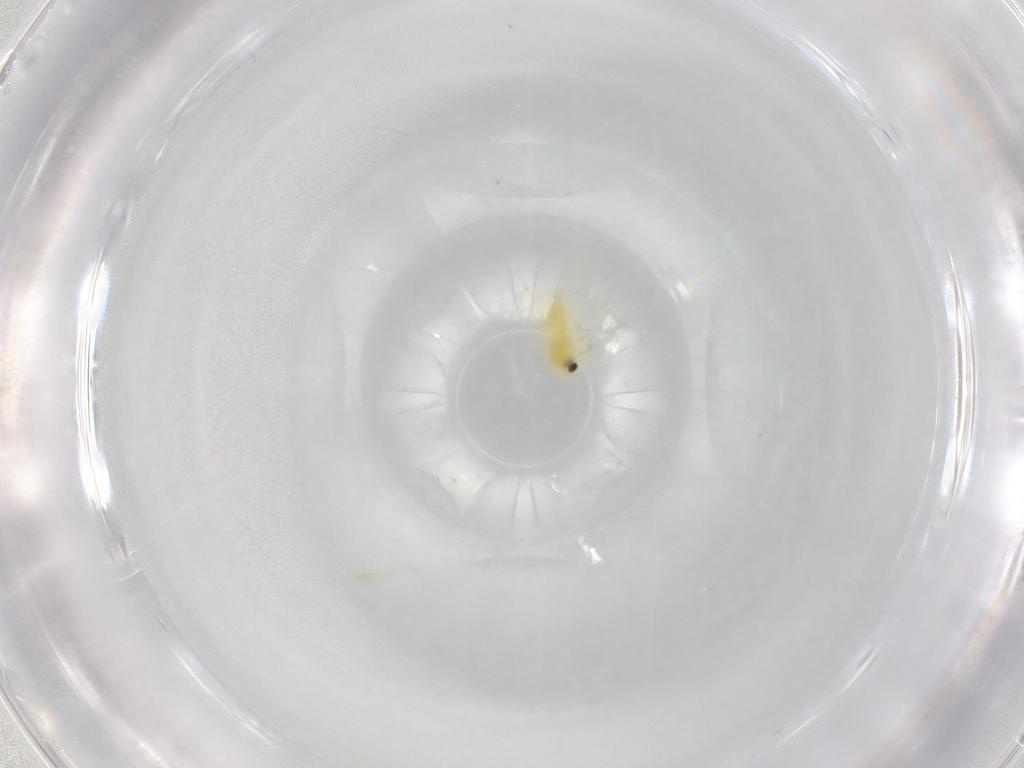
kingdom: Animalia
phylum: Arthropoda
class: Insecta
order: Hemiptera
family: Aleyrodidae
